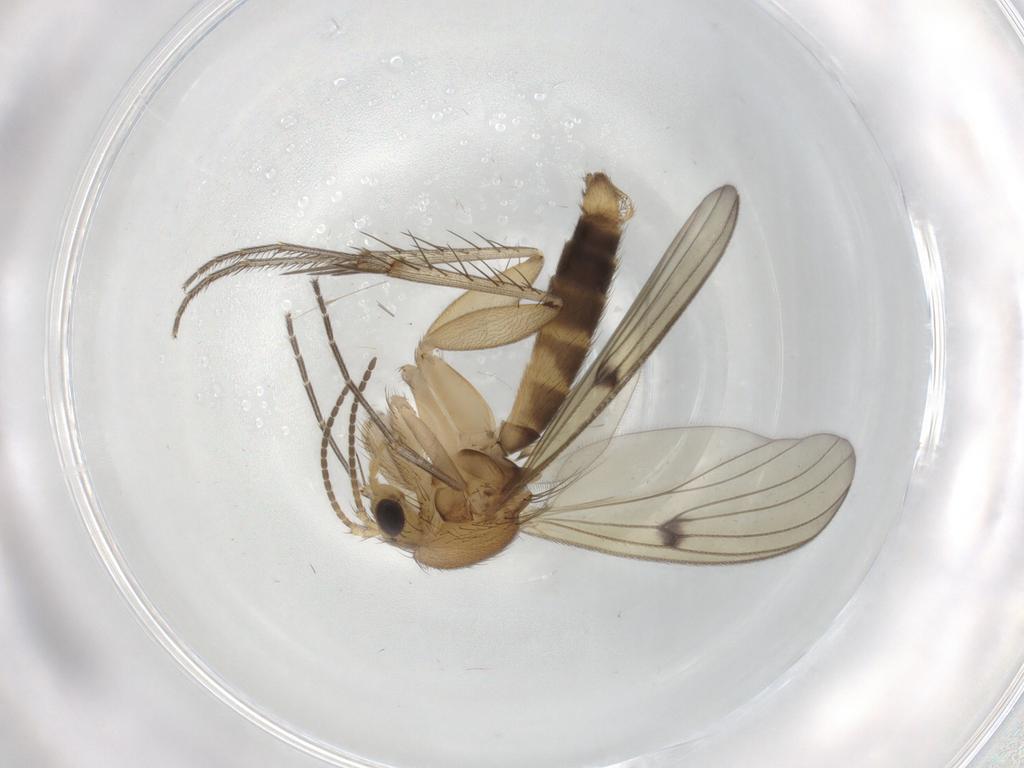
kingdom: Animalia
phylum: Arthropoda
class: Insecta
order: Diptera
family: Mycetophilidae
